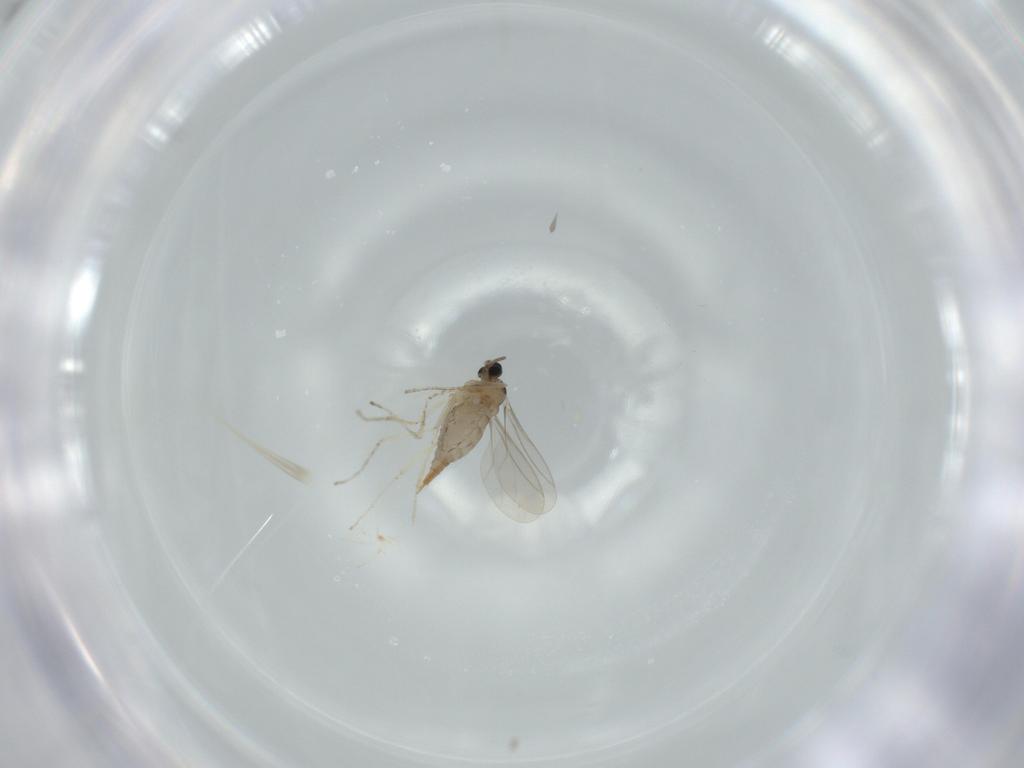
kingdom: Animalia
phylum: Arthropoda
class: Insecta
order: Diptera
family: Cecidomyiidae
